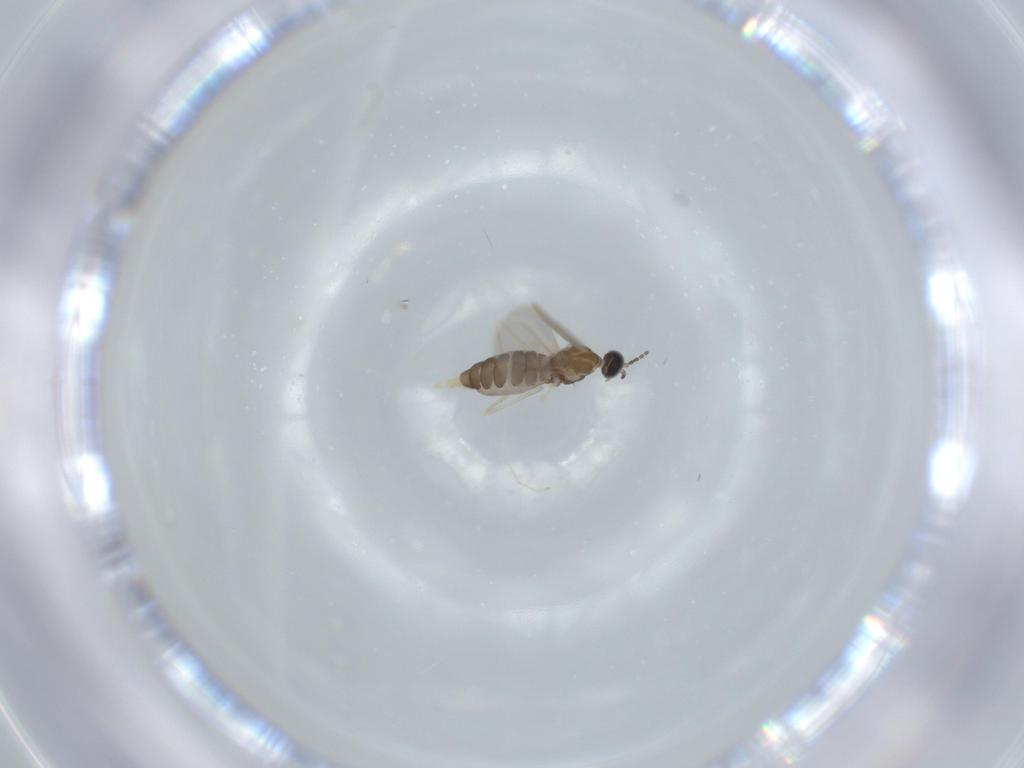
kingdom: Animalia
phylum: Arthropoda
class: Insecta
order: Diptera
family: Cecidomyiidae
